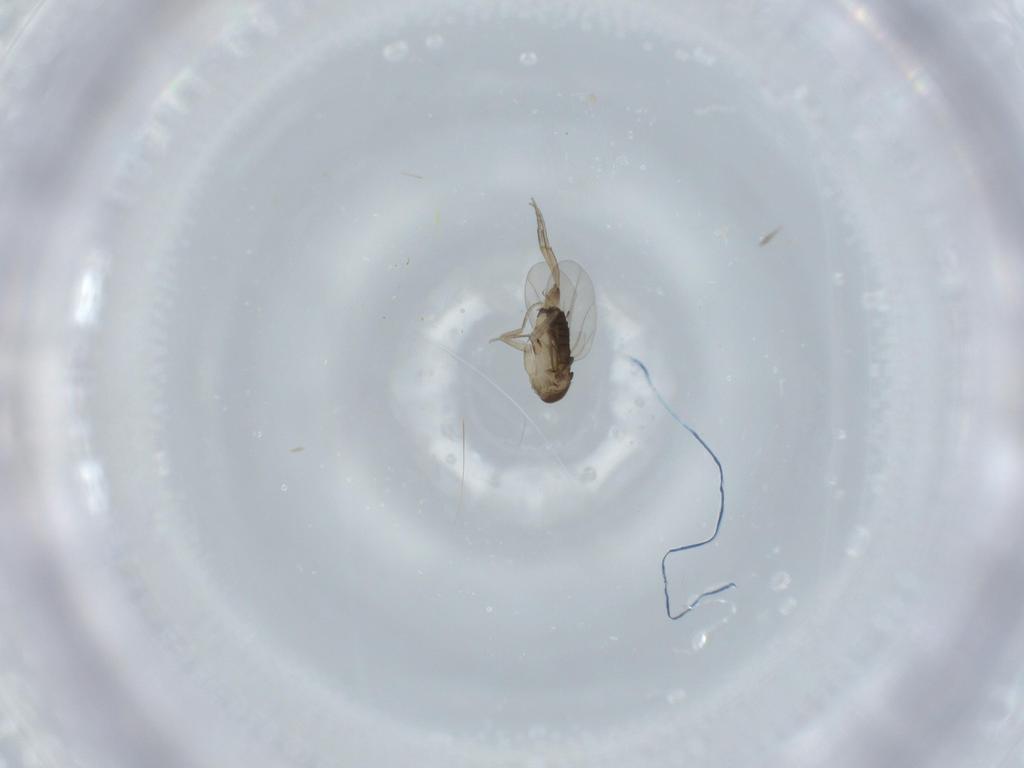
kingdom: Animalia
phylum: Arthropoda
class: Insecta
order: Diptera
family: Phoridae
